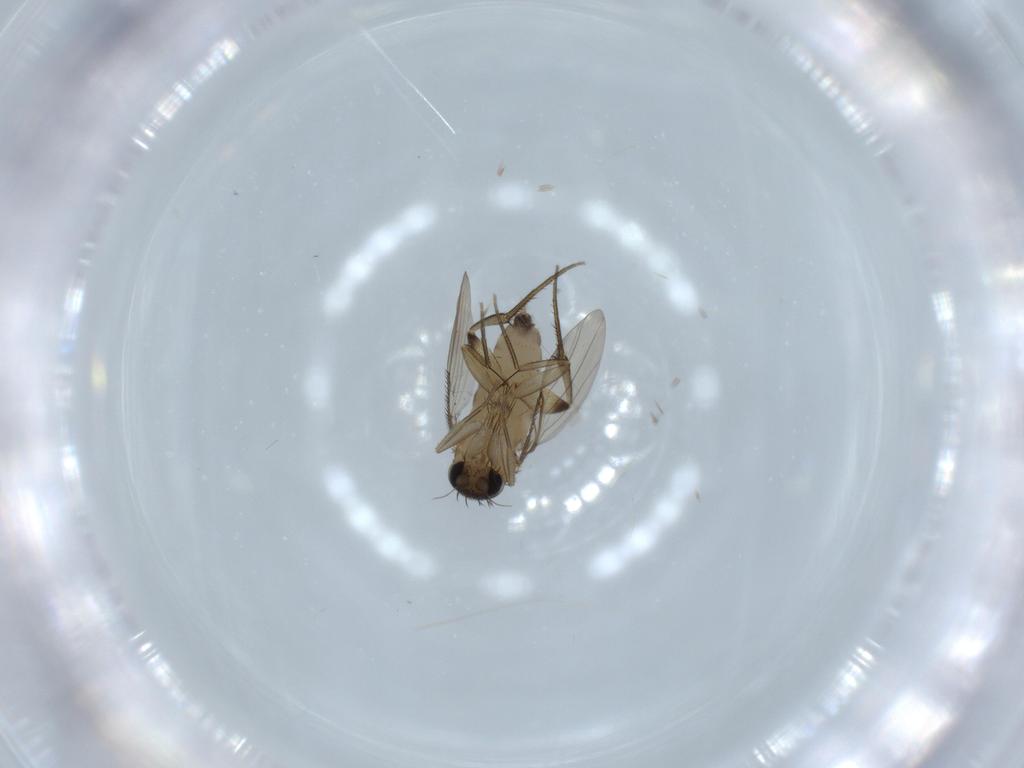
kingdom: Animalia
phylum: Arthropoda
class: Insecta
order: Diptera
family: Phoridae
